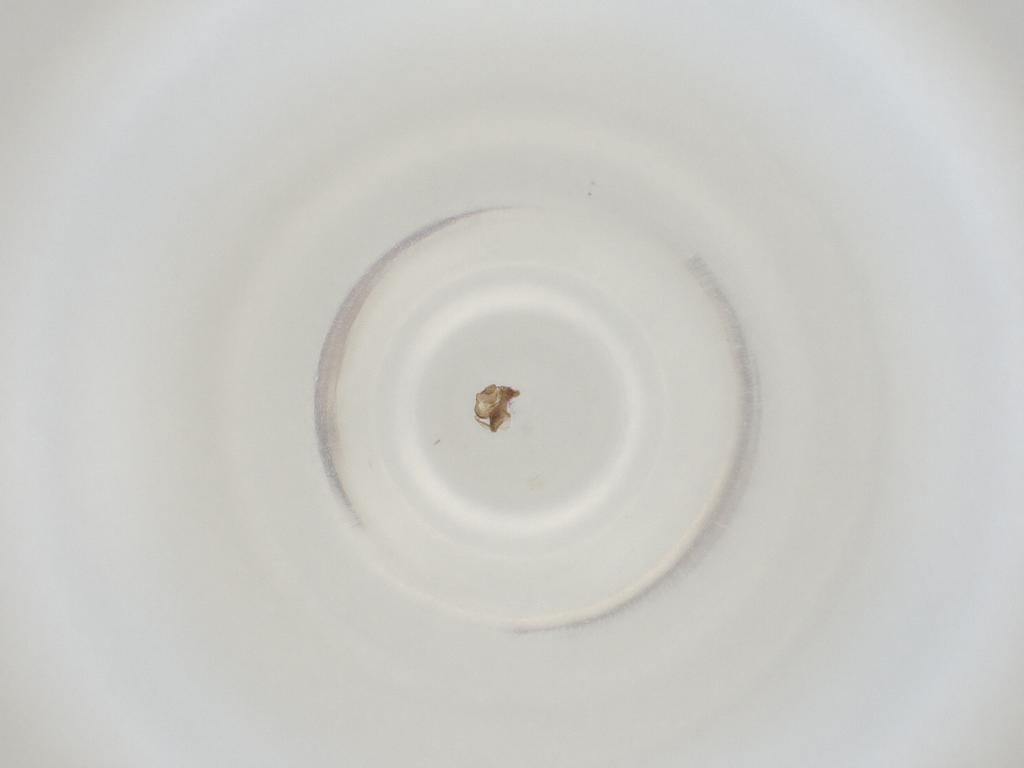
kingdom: Animalia
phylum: Arthropoda
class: Insecta
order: Diptera
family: Cecidomyiidae
